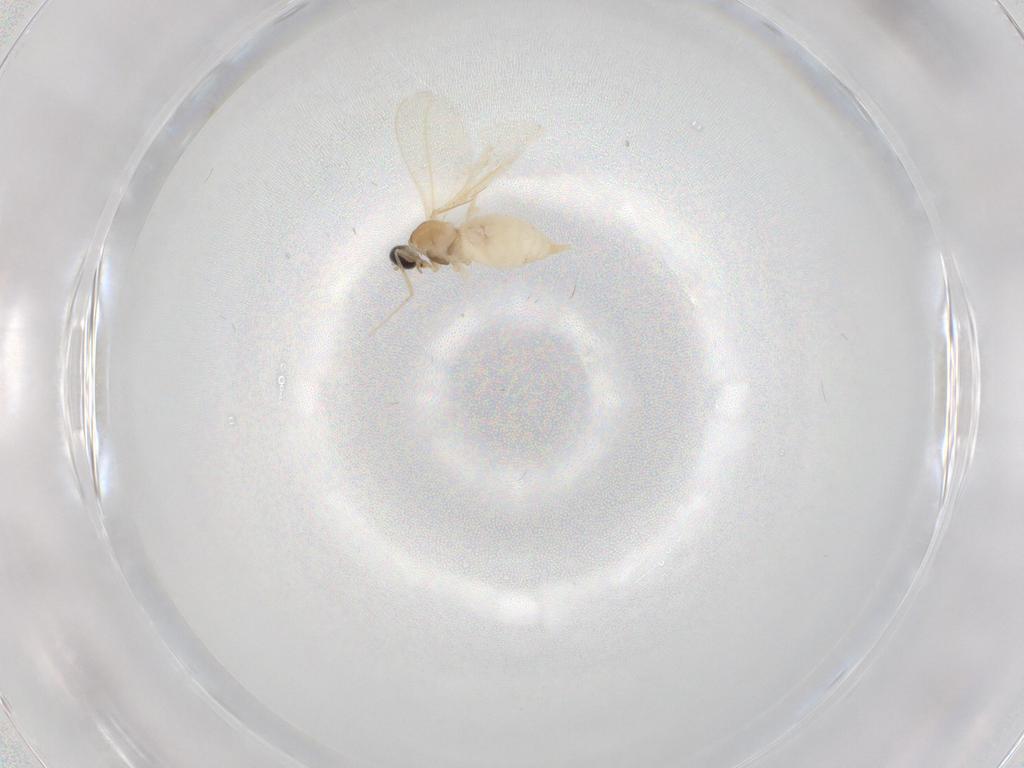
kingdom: Animalia
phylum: Arthropoda
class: Insecta
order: Diptera
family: Cecidomyiidae
